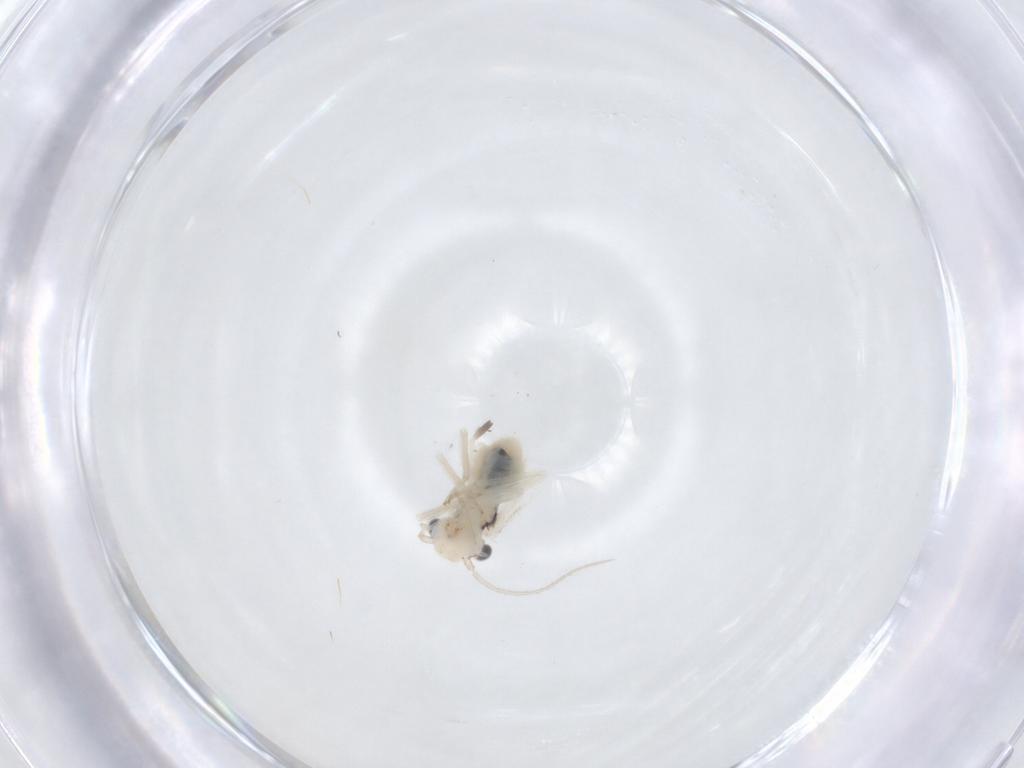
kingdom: Animalia
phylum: Arthropoda
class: Insecta
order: Psocodea
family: Caeciliusidae
